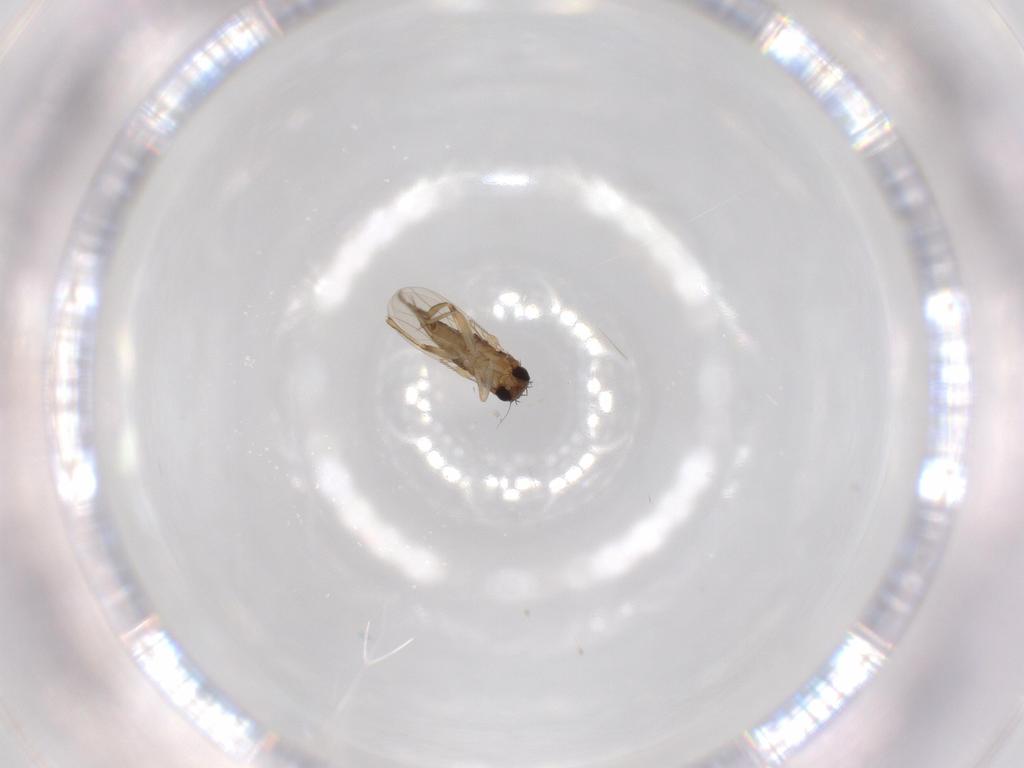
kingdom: Animalia
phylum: Arthropoda
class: Insecta
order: Diptera
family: Phoridae
